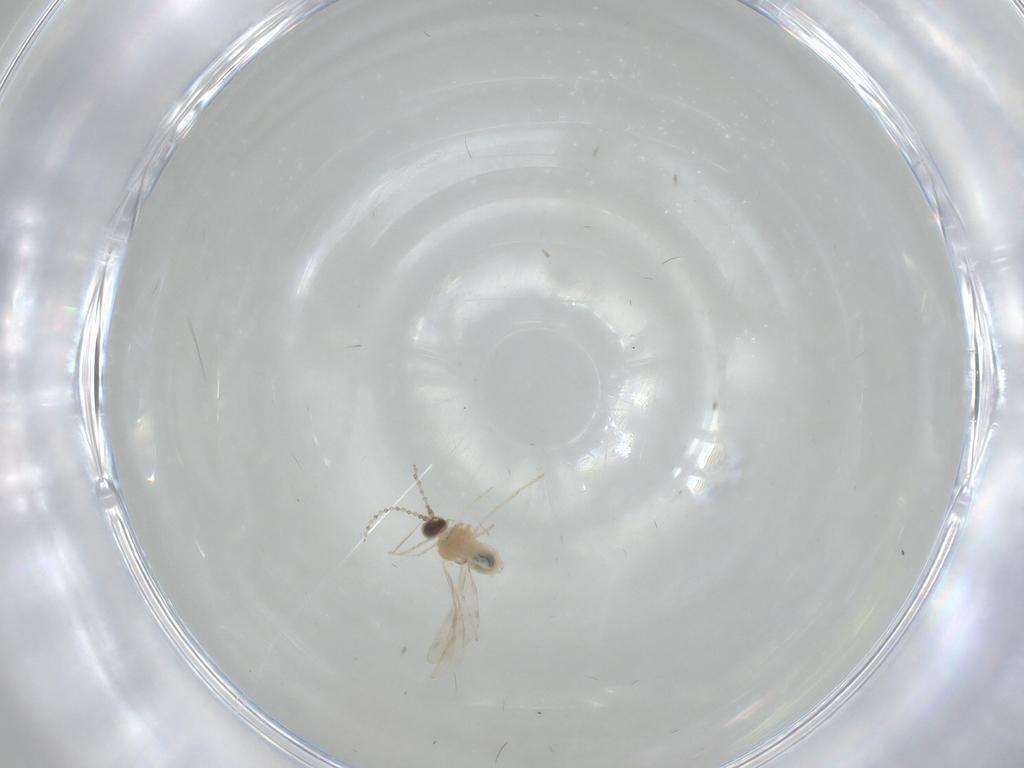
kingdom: Animalia
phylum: Arthropoda
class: Insecta
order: Diptera
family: Cecidomyiidae
